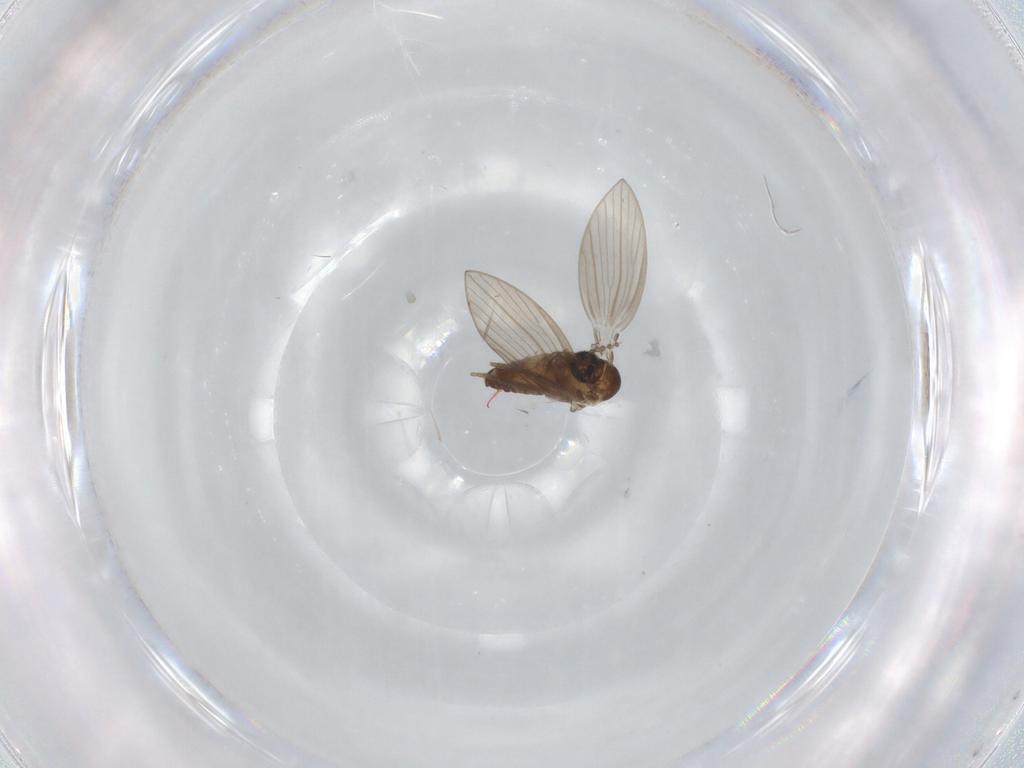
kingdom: Animalia
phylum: Arthropoda
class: Insecta
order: Diptera
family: Psychodidae
